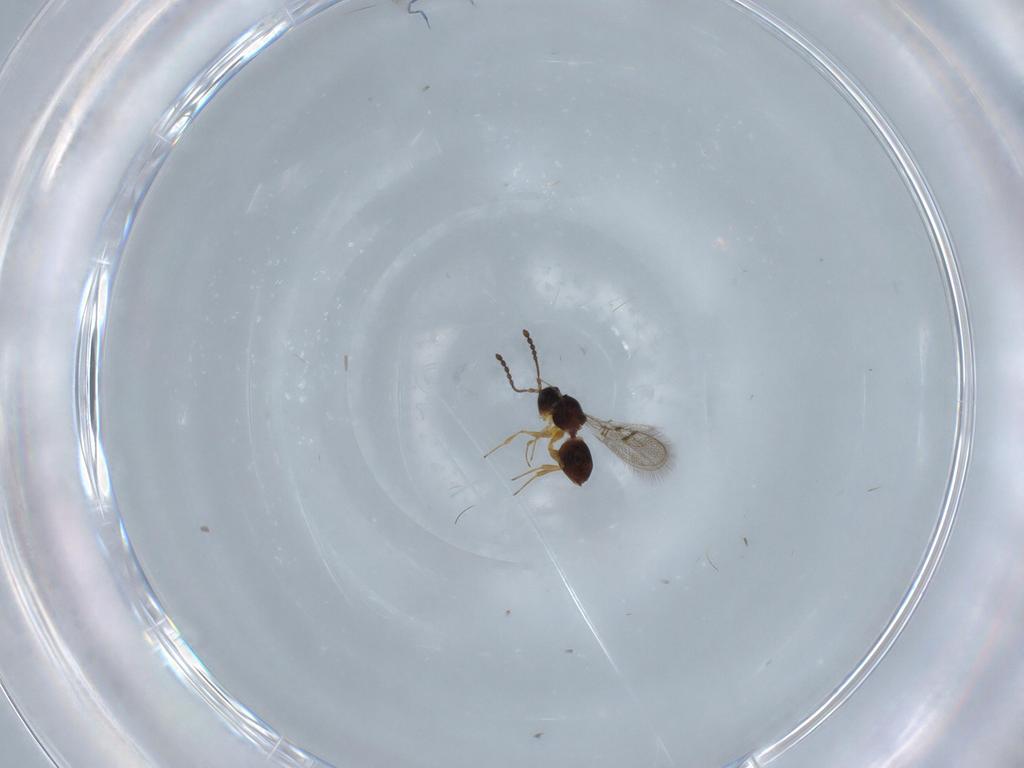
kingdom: Animalia
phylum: Arthropoda
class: Insecta
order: Hymenoptera
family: Figitidae
